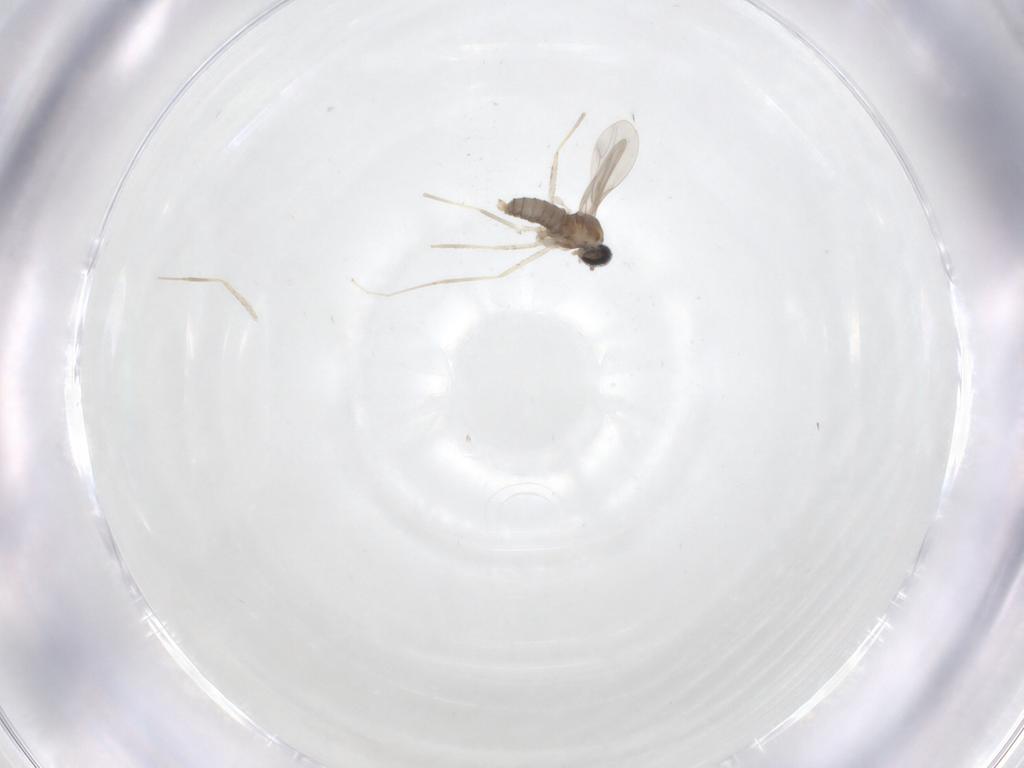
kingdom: Animalia
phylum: Arthropoda
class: Insecta
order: Diptera
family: Cecidomyiidae
